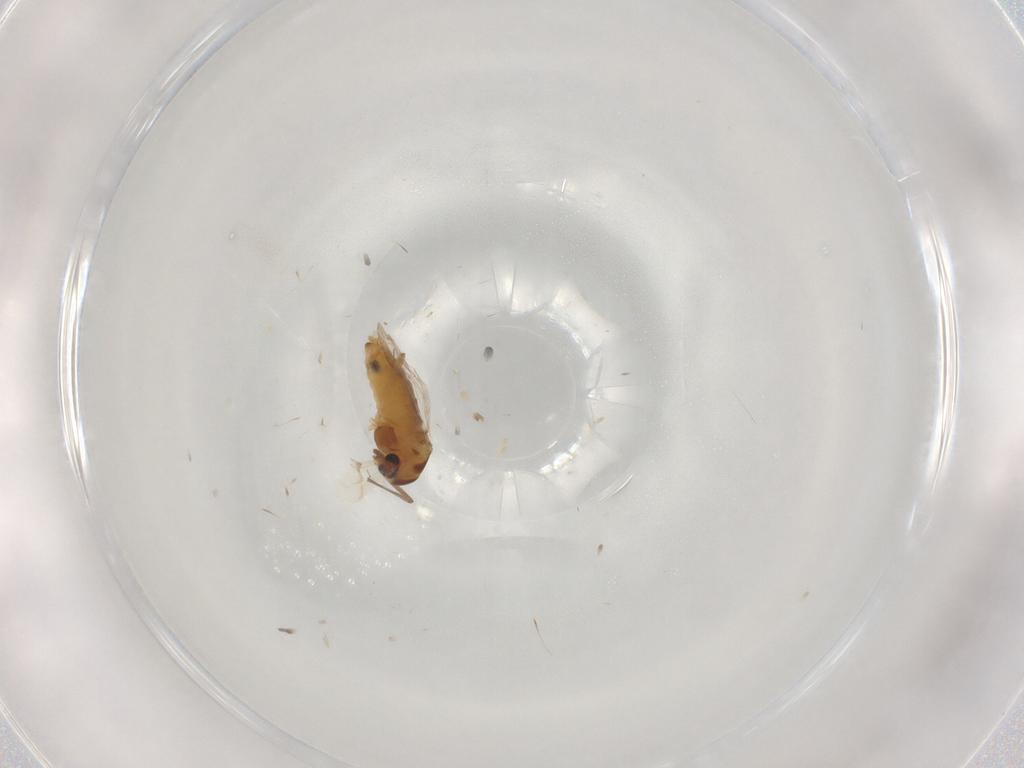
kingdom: Animalia
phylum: Arthropoda
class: Insecta
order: Diptera
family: Chironomidae
